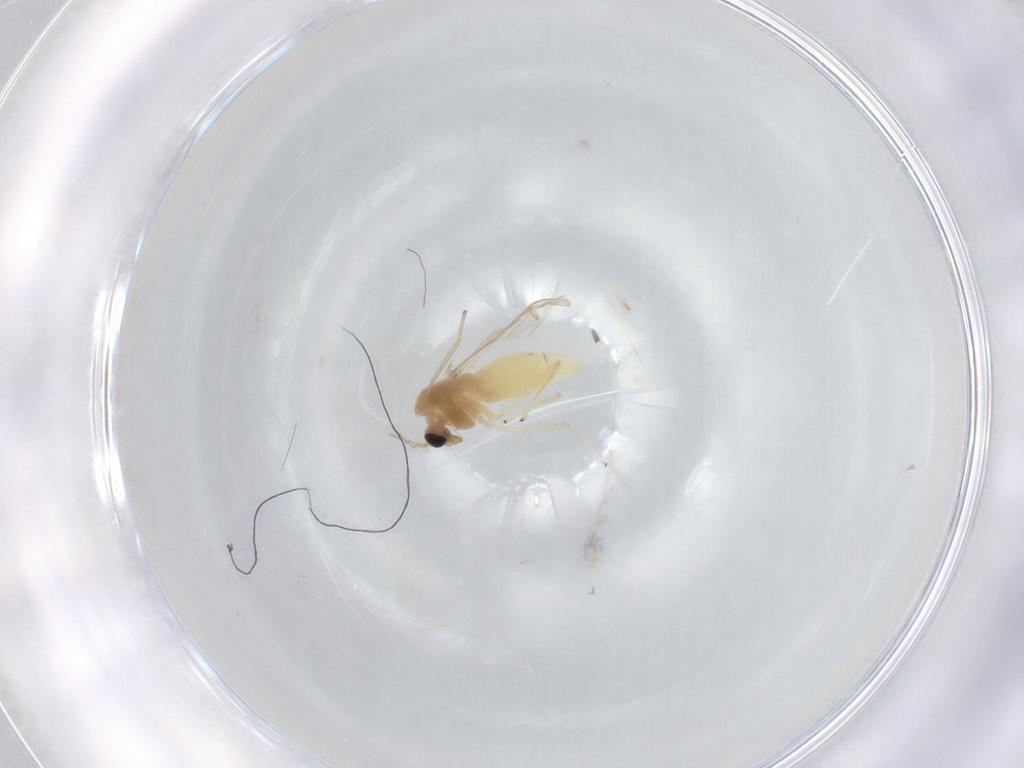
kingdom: Animalia
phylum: Arthropoda
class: Insecta
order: Diptera
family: Chironomidae
